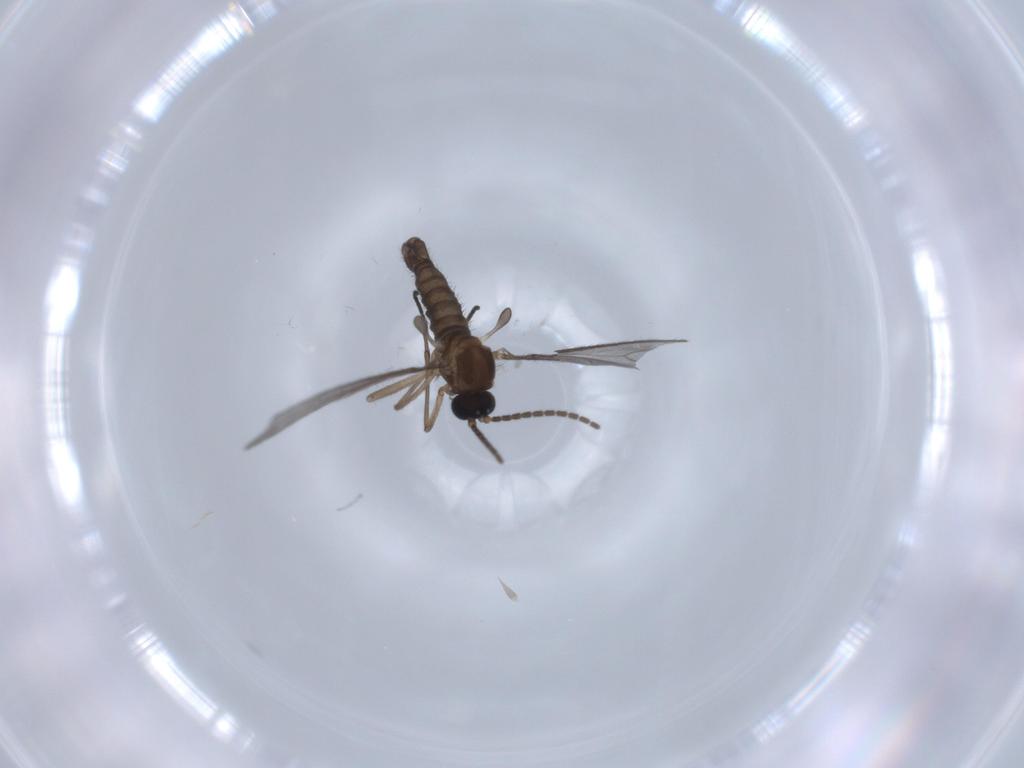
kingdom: Animalia
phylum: Arthropoda
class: Insecta
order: Diptera
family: Sciaridae
